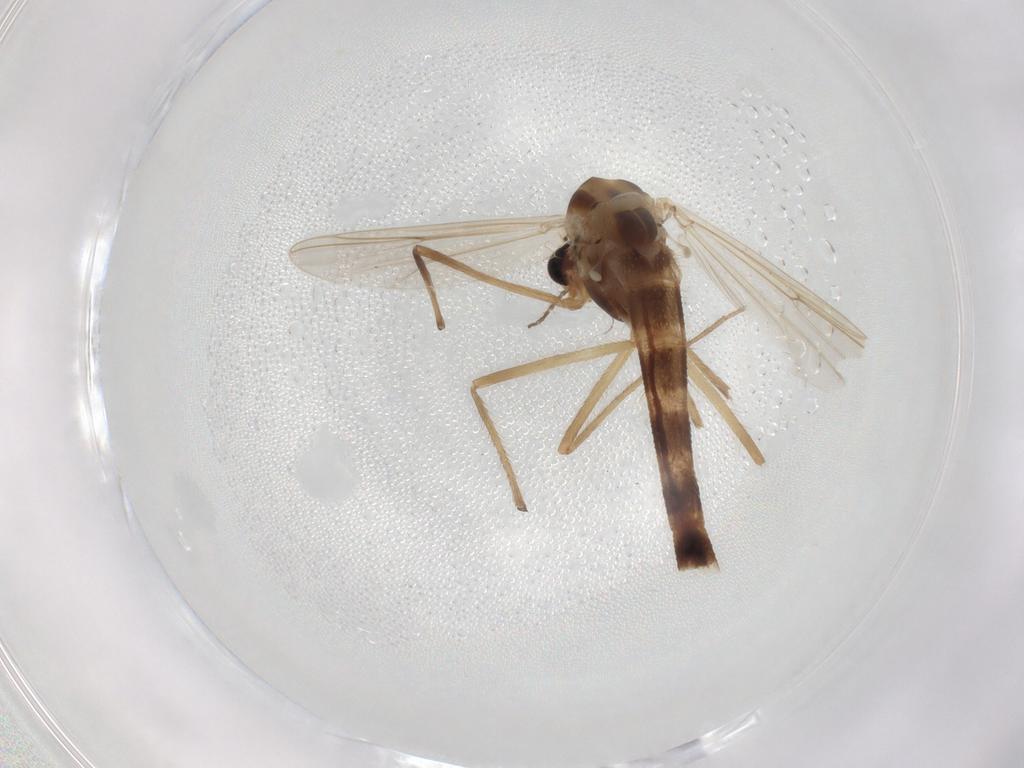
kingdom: Animalia
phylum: Arthropoda
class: Insecta
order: Diptera
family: Chironomidae
